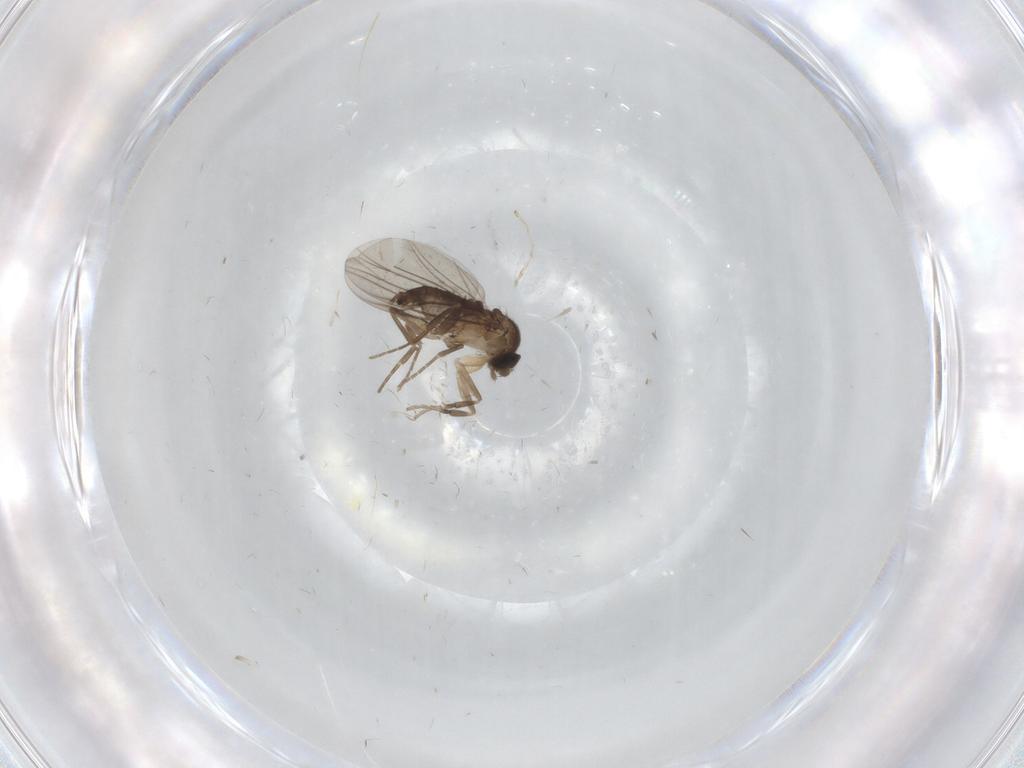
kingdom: Animalia
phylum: Arthropoda
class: Insecta
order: Diptera
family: Phoridae
